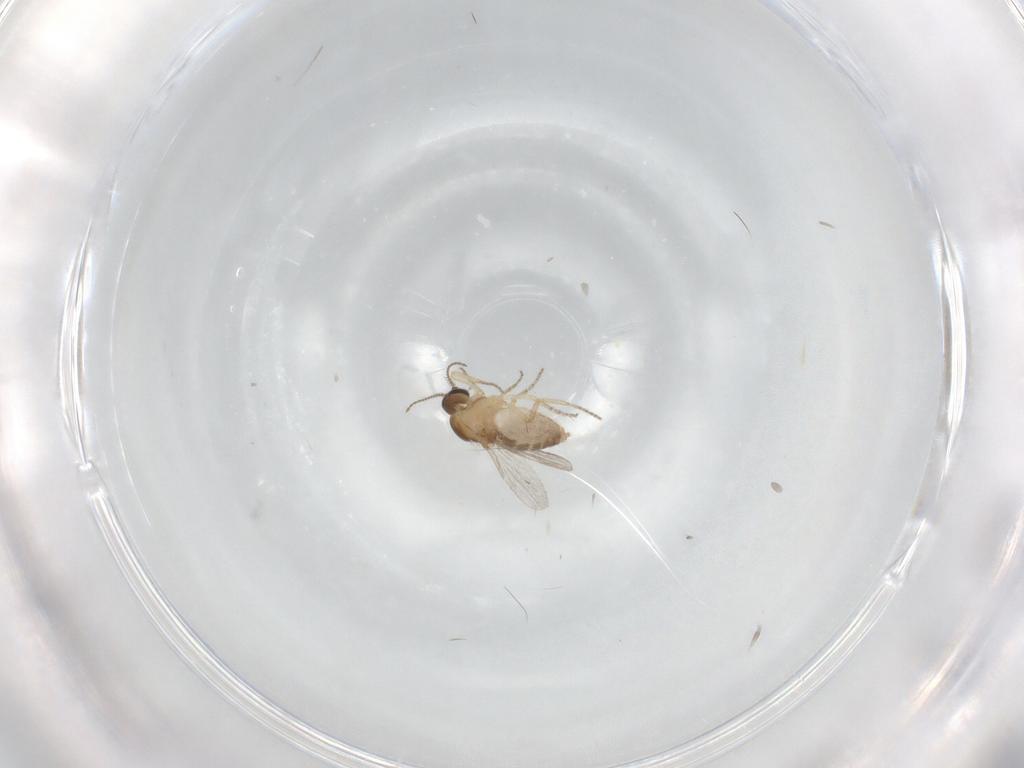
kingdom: Animalia
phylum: Arthropoda
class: Insecta
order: Diptera
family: Ceratopogonidae
